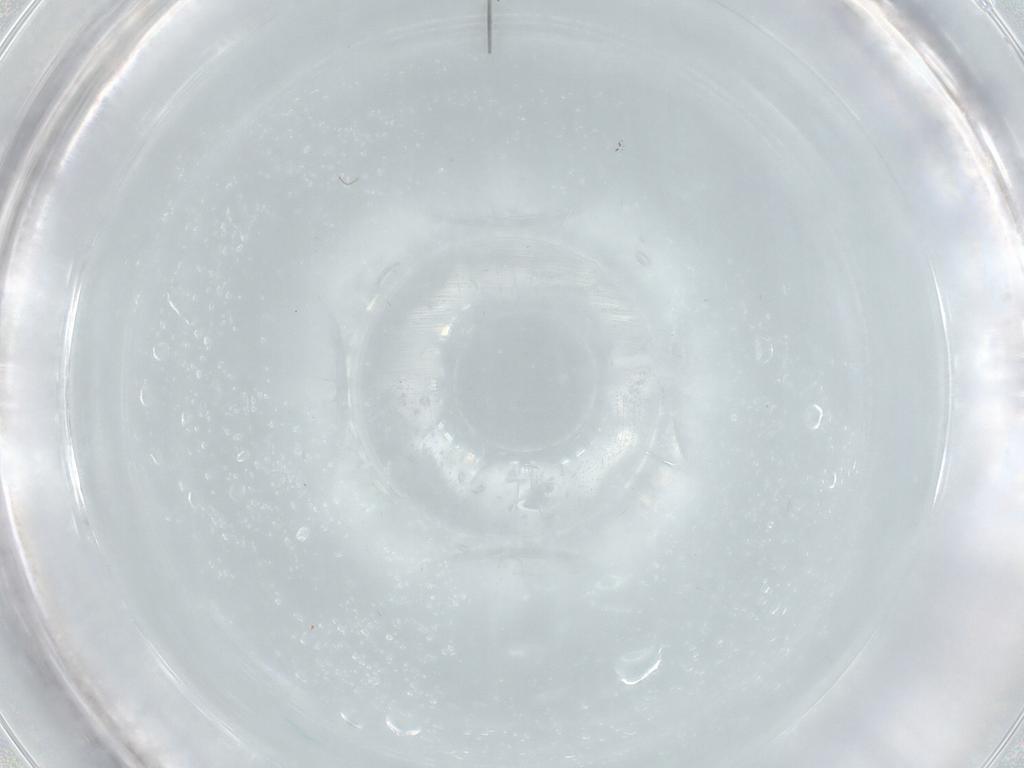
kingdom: Animalia
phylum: Arthropoda
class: Insecta
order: Diptera
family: Cecidomyiidae
